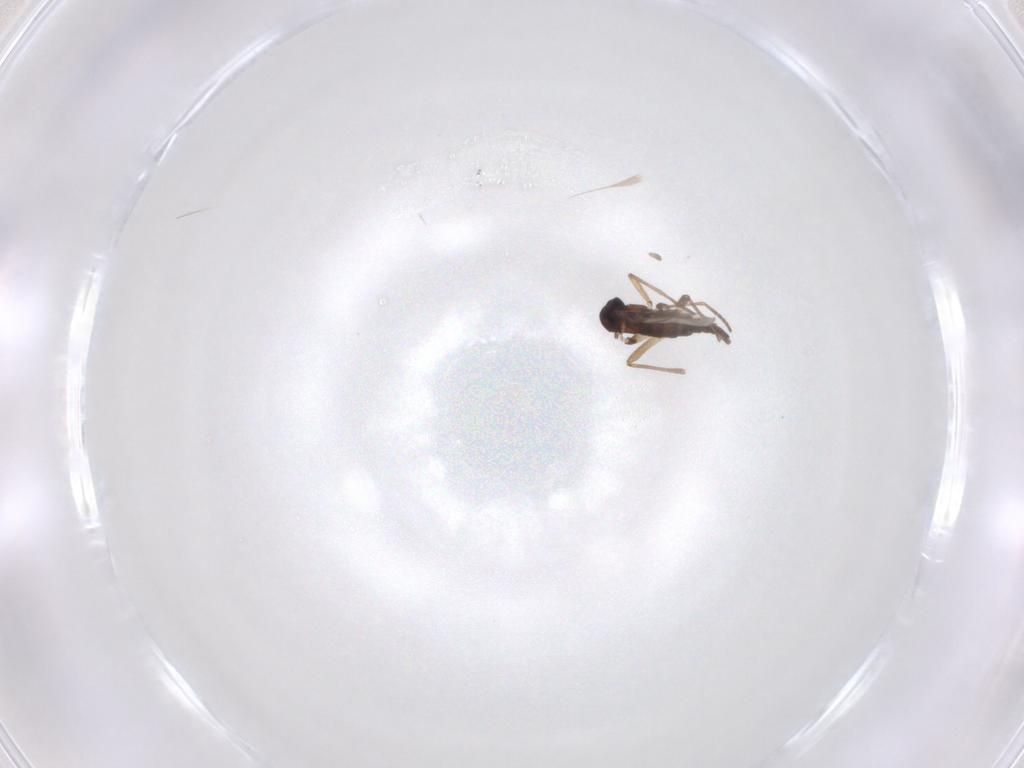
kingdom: Animalia
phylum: Arthropoda
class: Insecta
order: Diptera
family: Sciaridae
